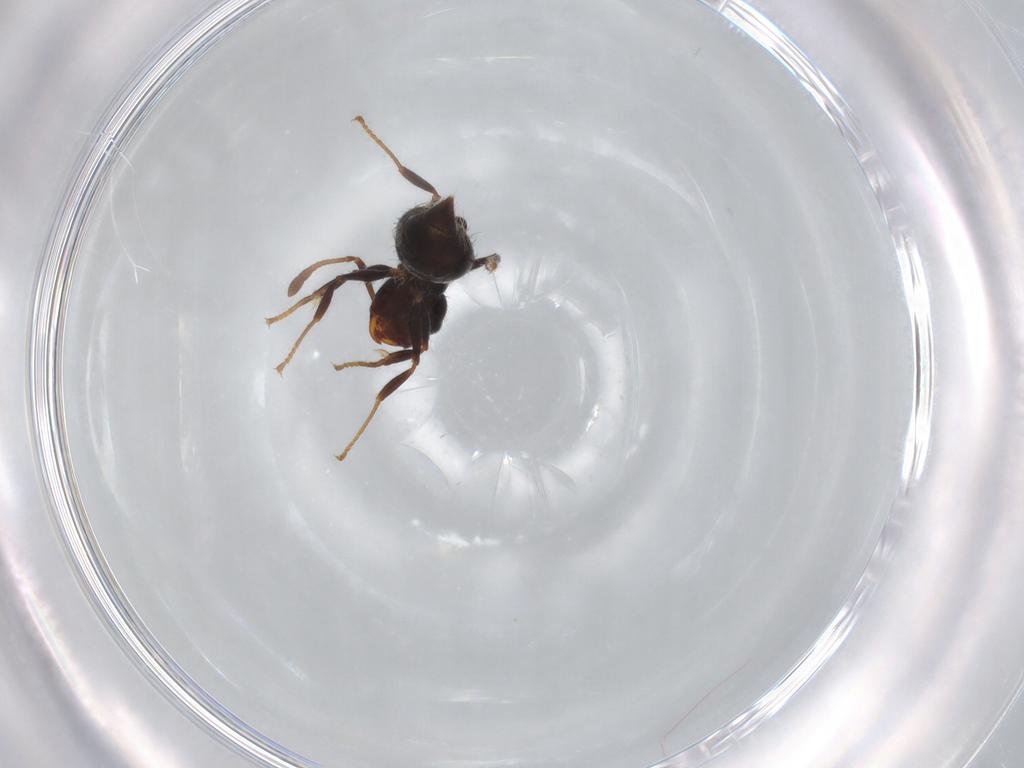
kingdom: Animalia
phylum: Arthropoda
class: Insecta
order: Hymenoptera
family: Formicidae
